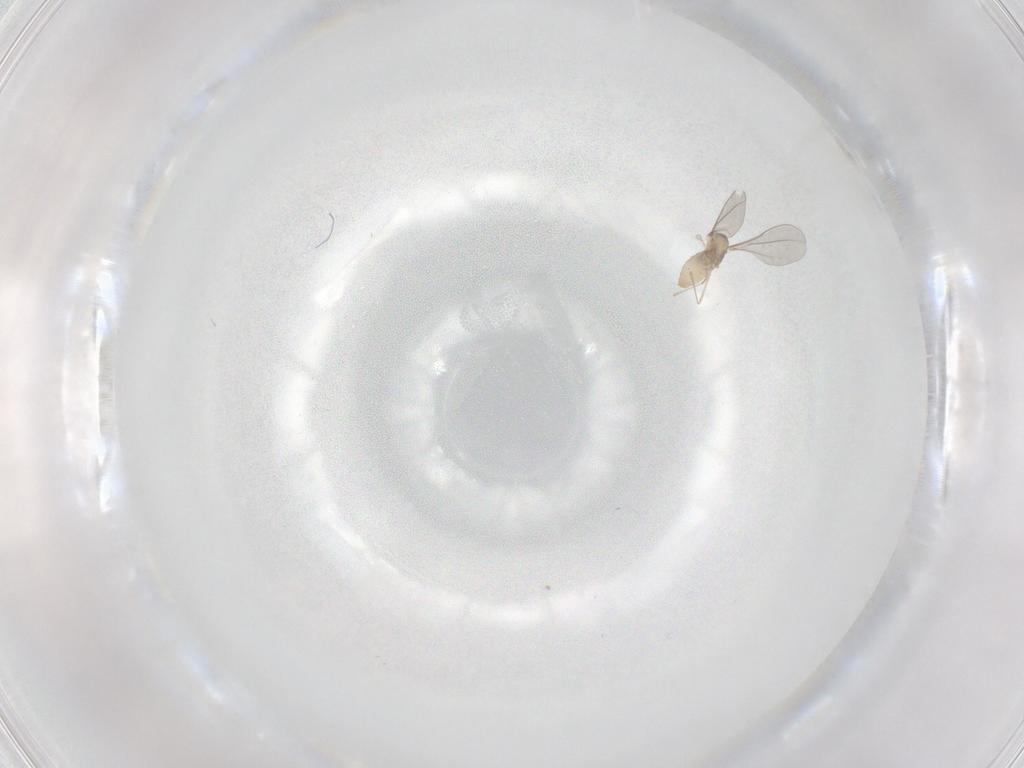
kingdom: Animalia
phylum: Arthropoda
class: Insecta
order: Diptera
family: Cecidomyiidae
